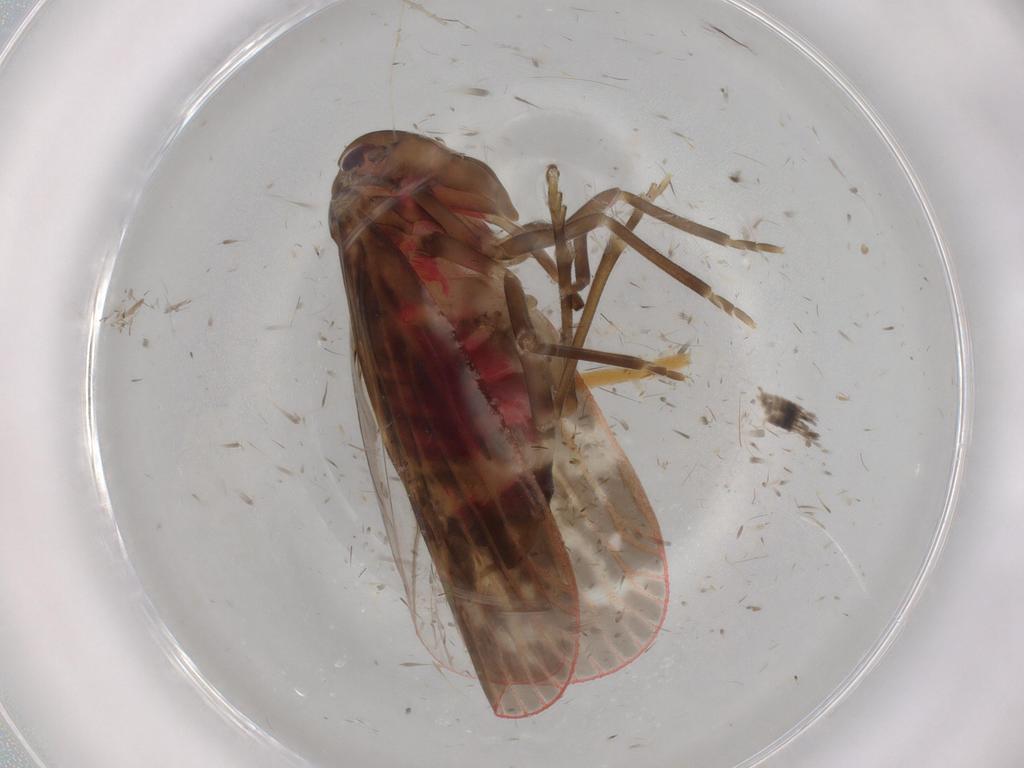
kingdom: Animalia
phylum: Arthropoda
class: Insecta
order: Hemiptera
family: Achilidae
